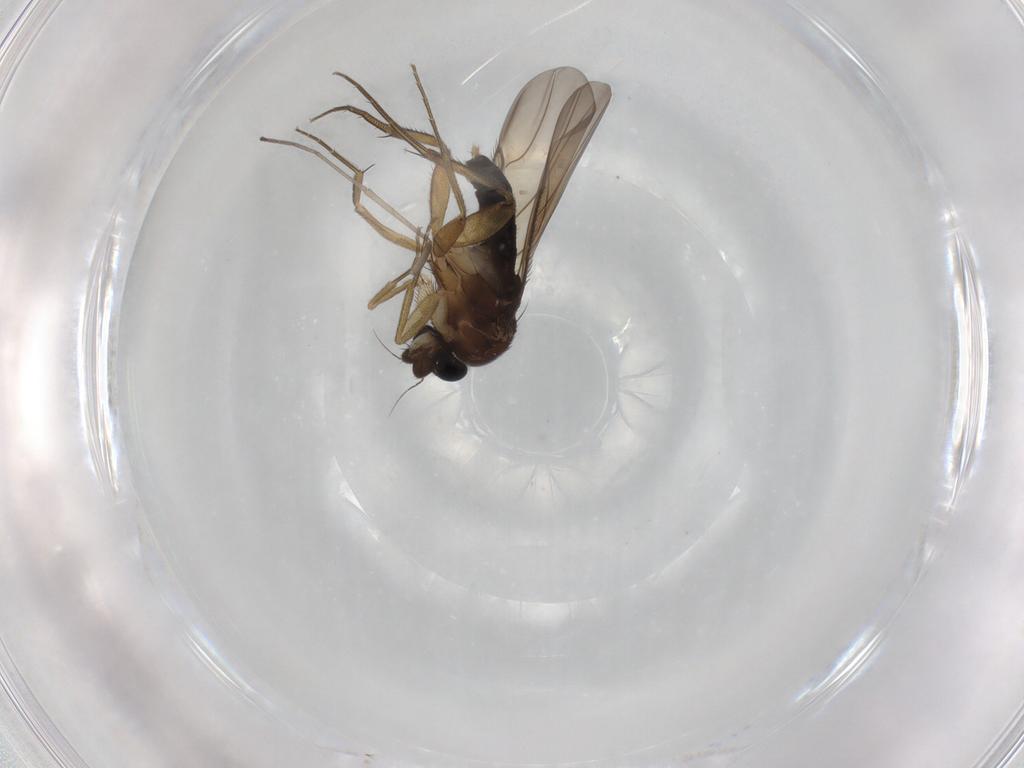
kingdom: Animalia
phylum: Arthropoda
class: Insecta
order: Diptera
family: Phoridae
